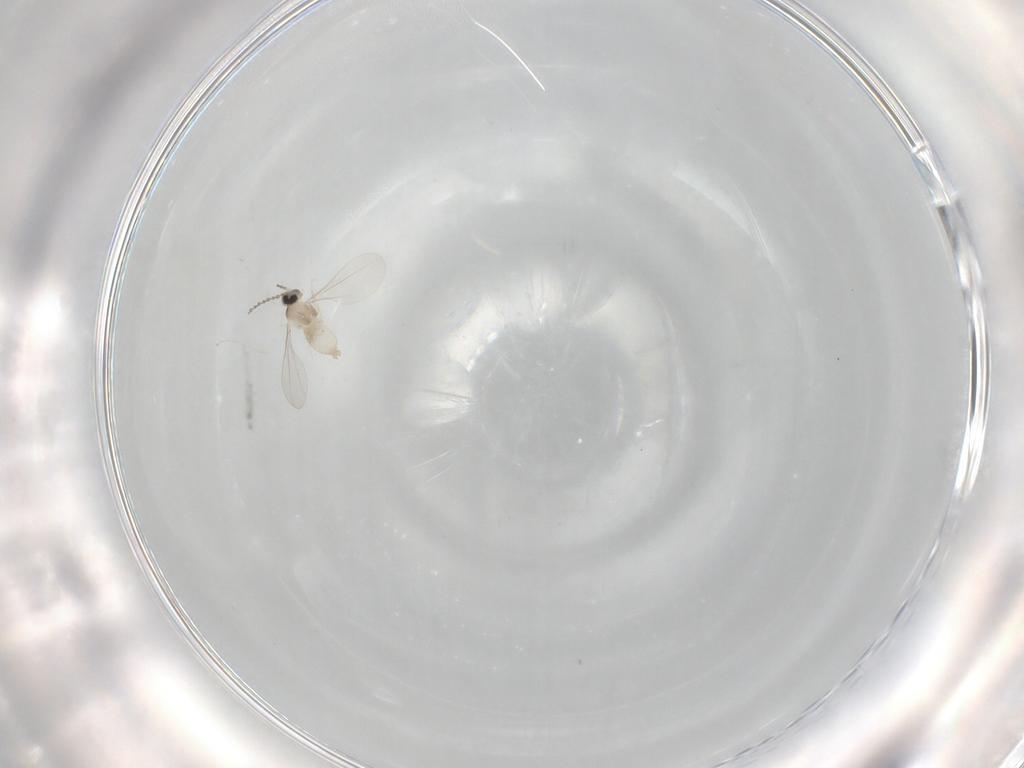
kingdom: Animalia
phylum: Arthropoda
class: Insecta
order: Diptera
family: Cecidomyiidae
